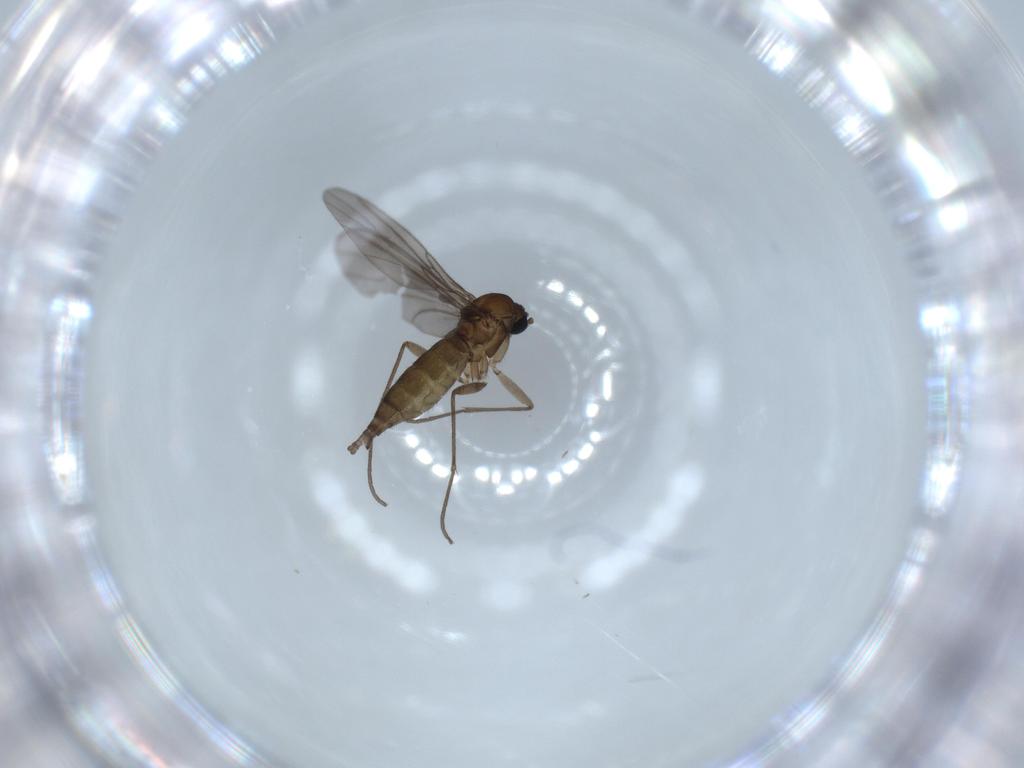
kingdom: Animalia
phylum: Arthropoda
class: Insecta
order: Diptera
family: Sciaridae
